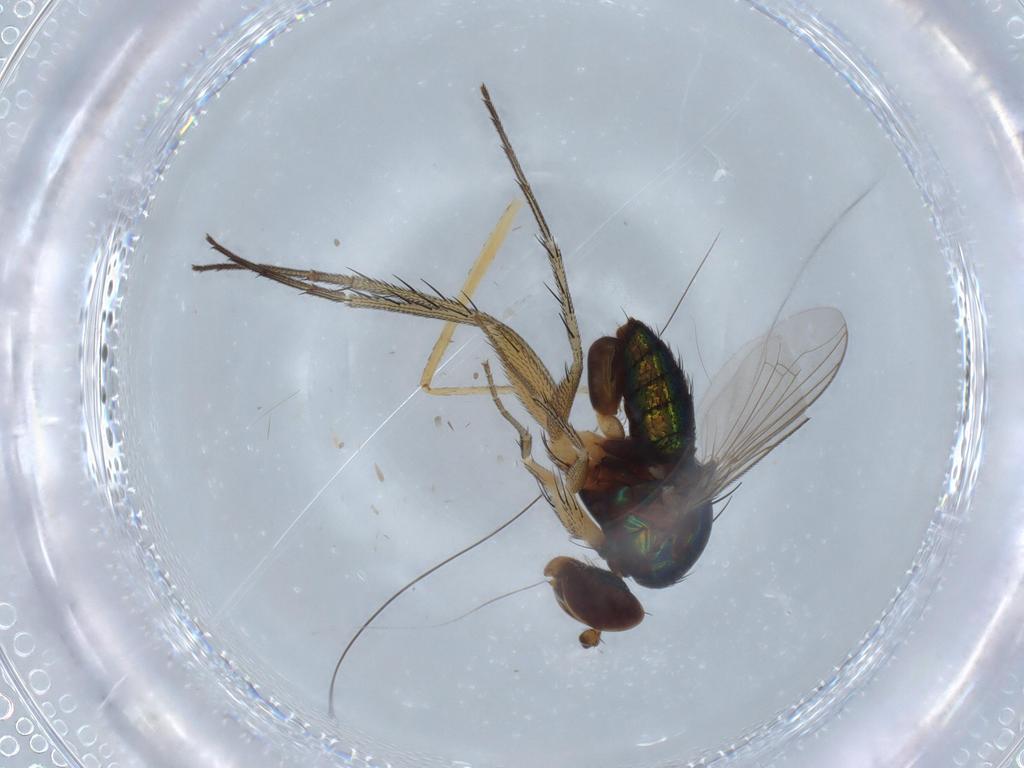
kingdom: Animalia
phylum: Arthropoda
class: Insecta
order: Diptera
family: Dolichopodidae
